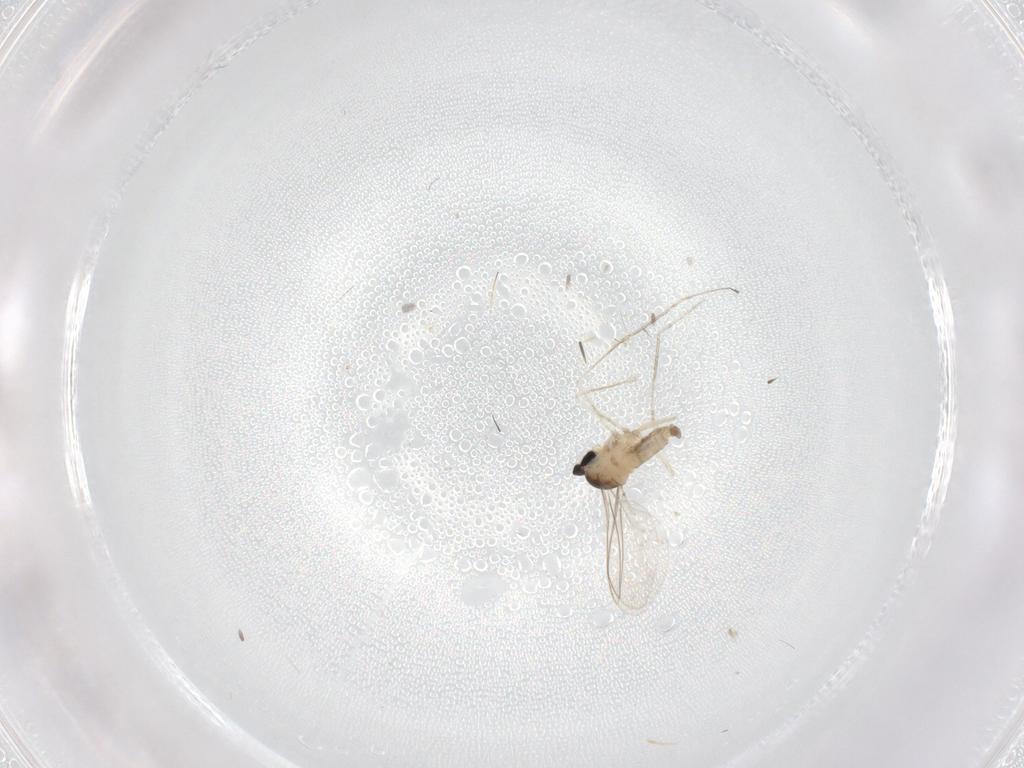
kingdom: Animalia
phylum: Arthropoda
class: Insecta
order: Diptera
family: Cecidomyiidae
